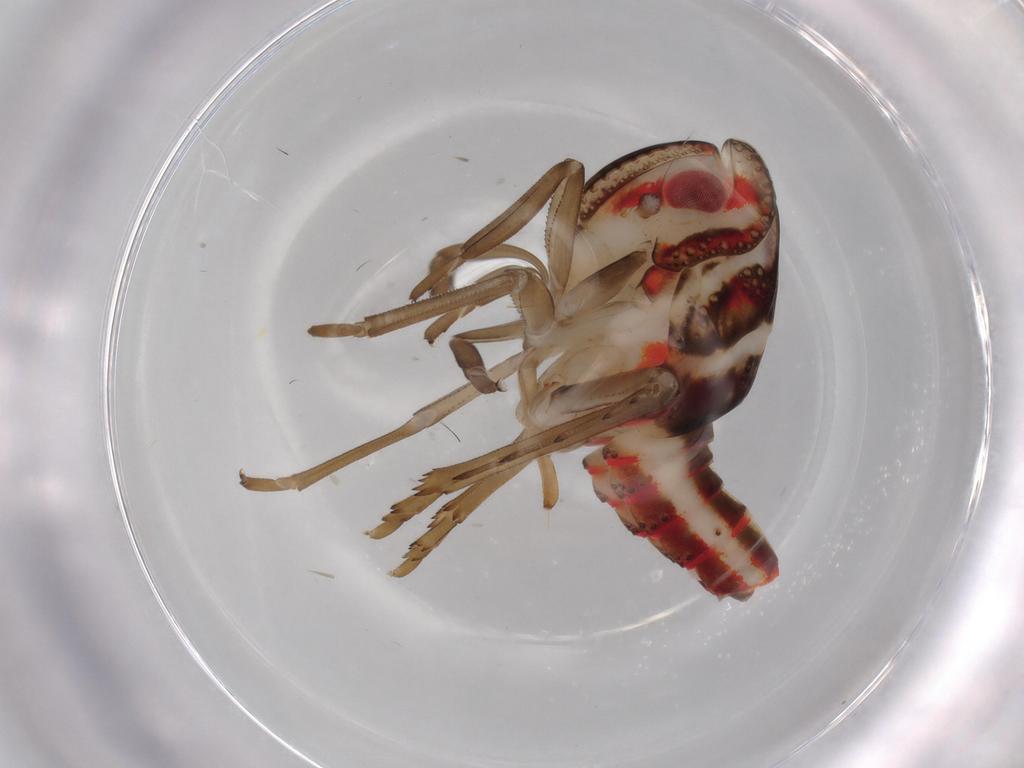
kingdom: Animalia
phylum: Arthropoda
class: Insecta
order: Hemiptera
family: Nogodinidae
